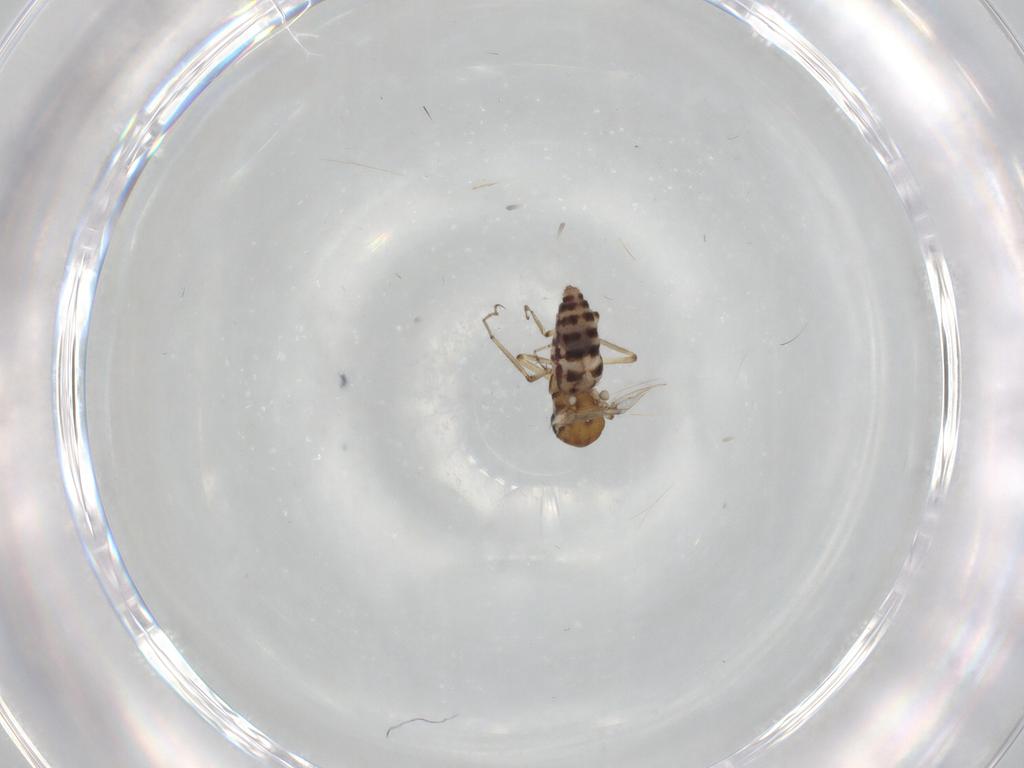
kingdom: Animalia
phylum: Arthropoda
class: Insecta
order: Diptera
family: Ceratopogonidae
